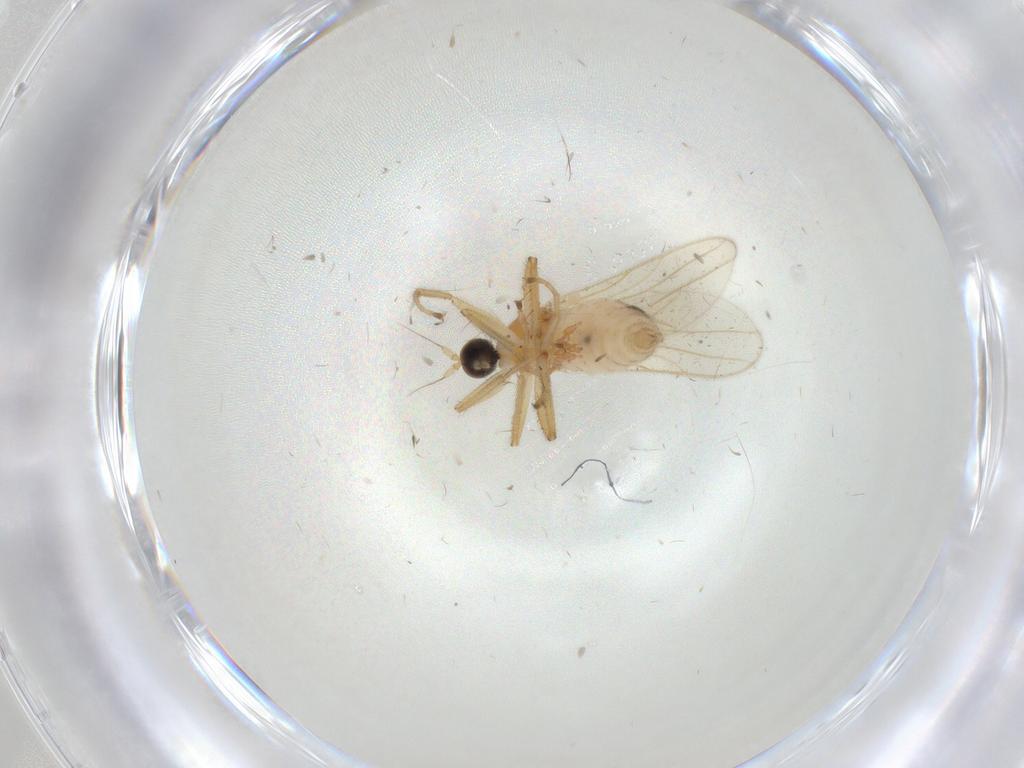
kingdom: Animalia
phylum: Arthropoda
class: Insecta
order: Diptera
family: Hybotidae
